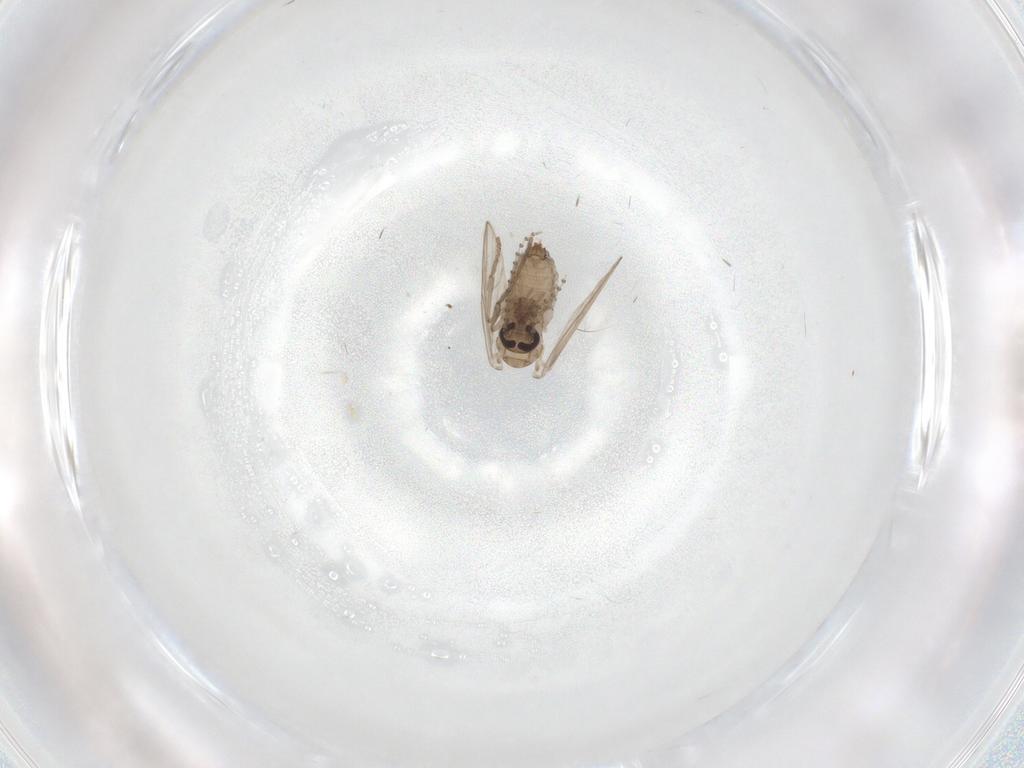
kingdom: Animalia
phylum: Arthropoda
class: Insecta
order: Diptera
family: Psychodidae
